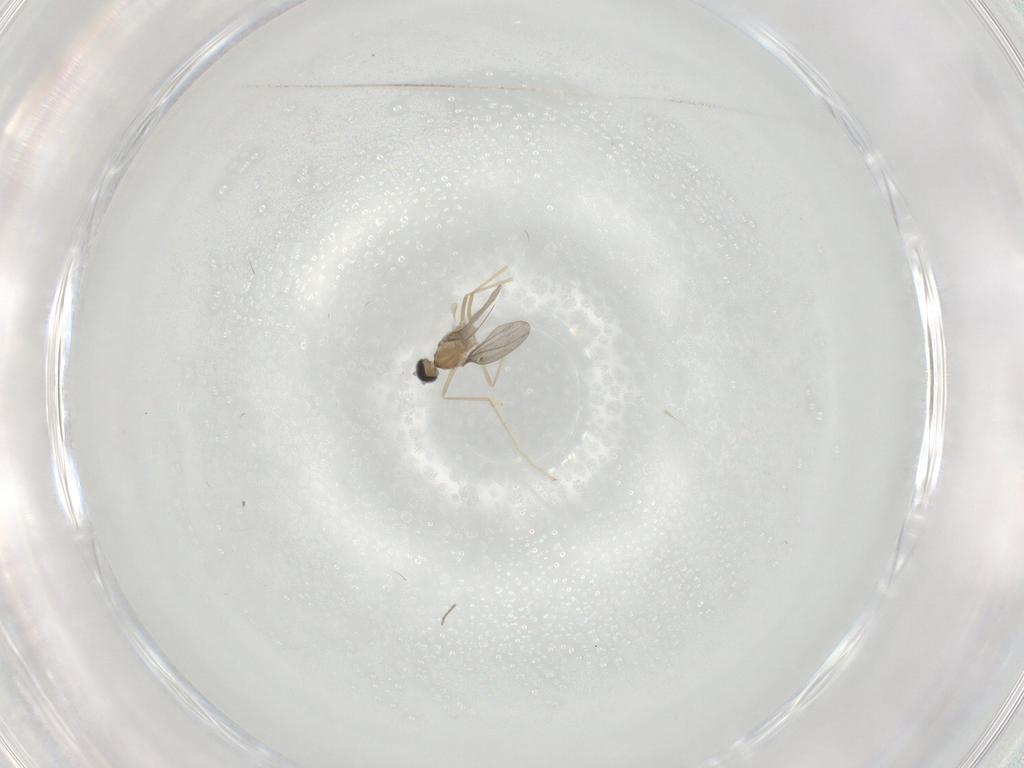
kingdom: Animalia
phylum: Arthropoda
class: Insecta
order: Diptera
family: Cecidomyiidae
